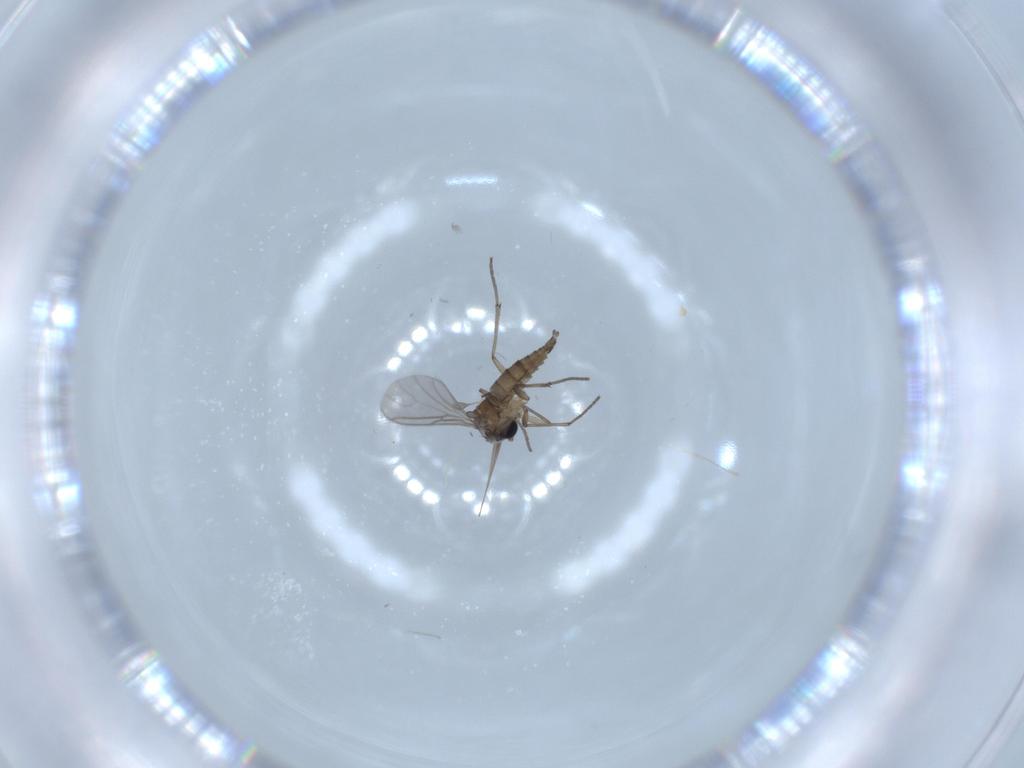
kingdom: Animalia
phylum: Arthropoda
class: Insecta
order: Diptera
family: Sciaridae
